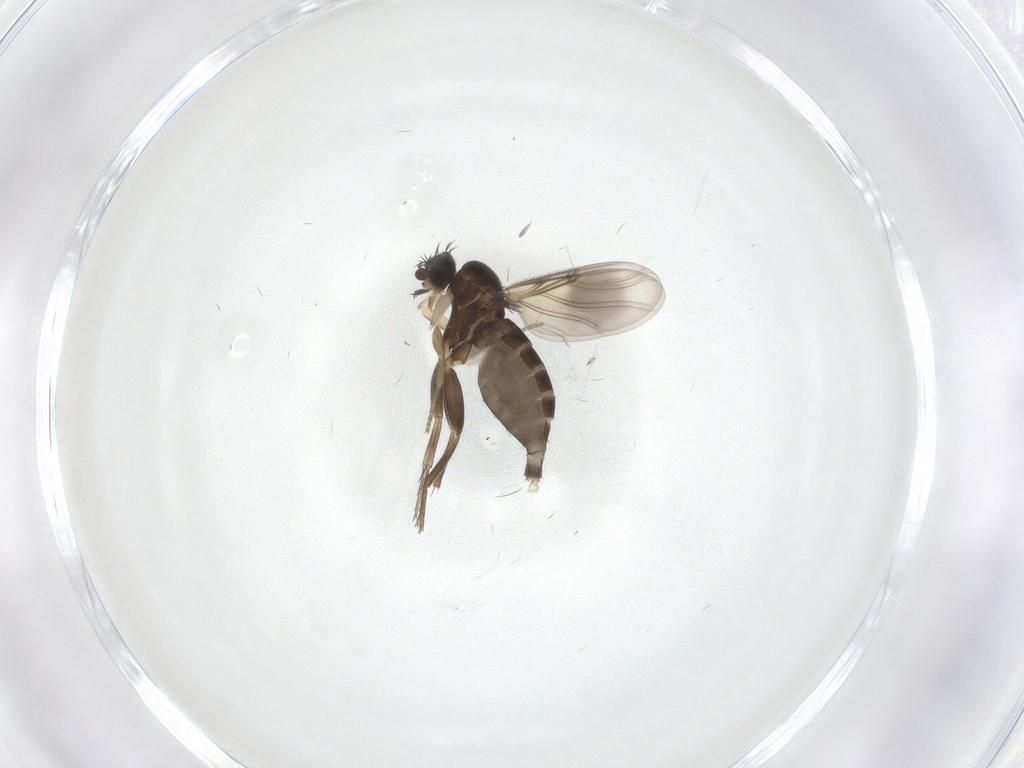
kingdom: Animalia
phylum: Arthropoda
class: Insecta
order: Diptera
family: Phoridae
